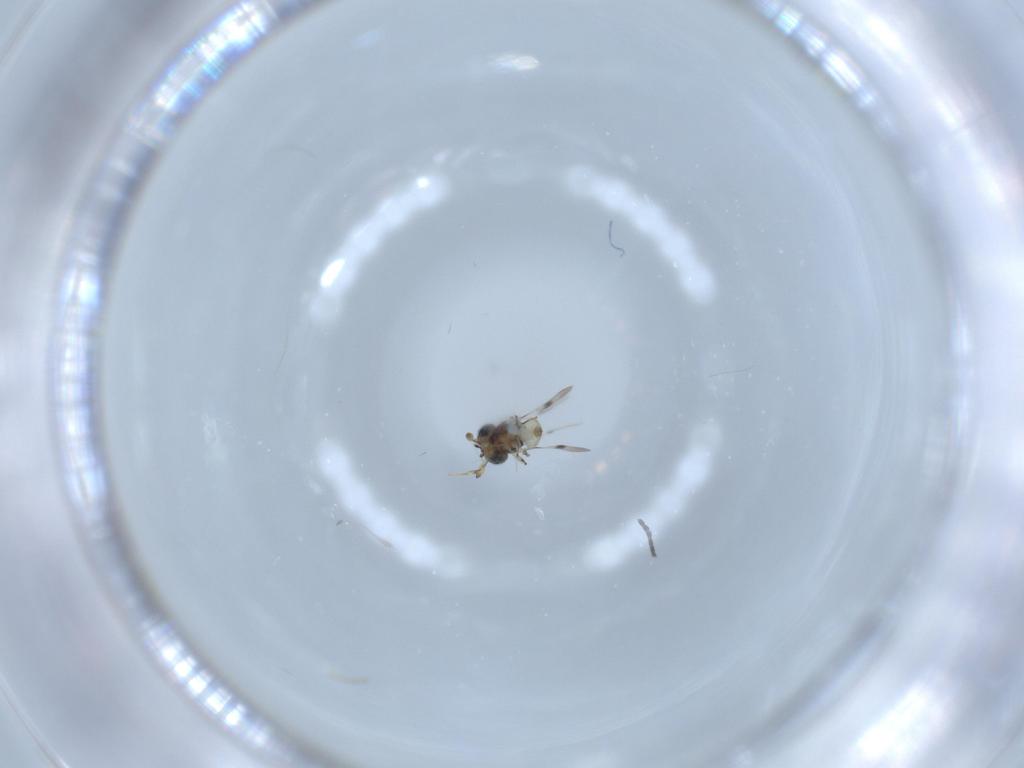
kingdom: Animalia
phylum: Arthropoda
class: Insecta
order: Hymenoptera
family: Scelionidae
